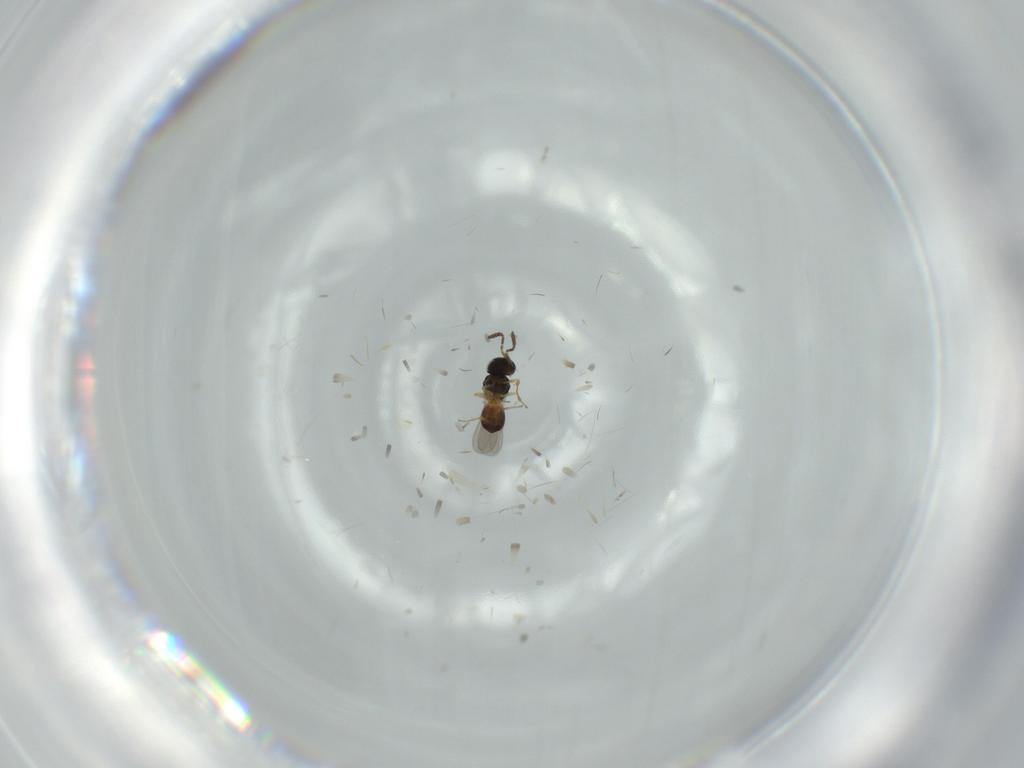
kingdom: Animalia
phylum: Arthropoda
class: Insecta
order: Hymenoptera
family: Scelionidae
